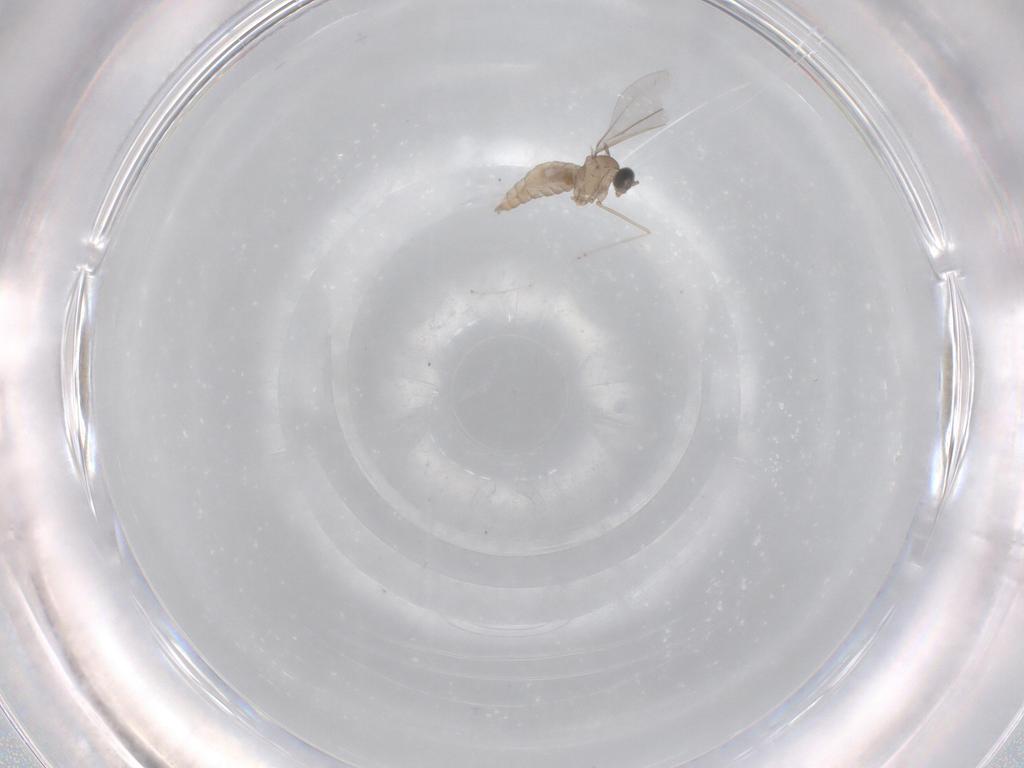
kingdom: Animalia
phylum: Arthropoda
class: Insecta
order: Diptera
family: Cecidomyiidae
